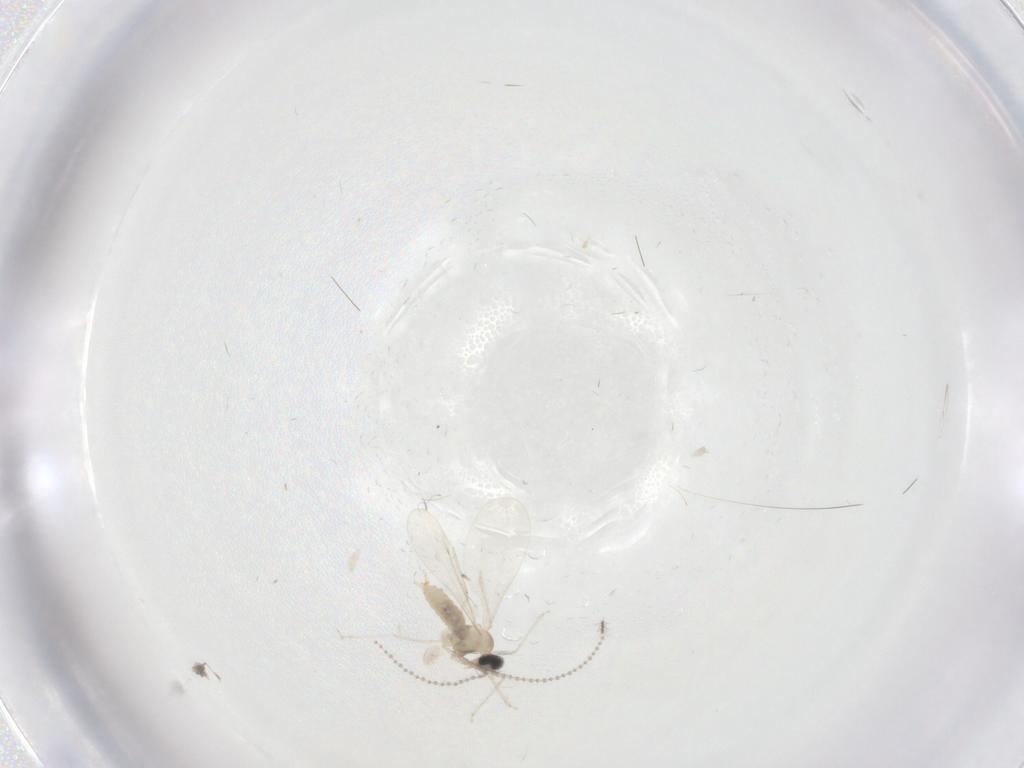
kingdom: Animalia
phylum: Arthropoda
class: Insecta
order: Diptera
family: Cecidomyiidae
